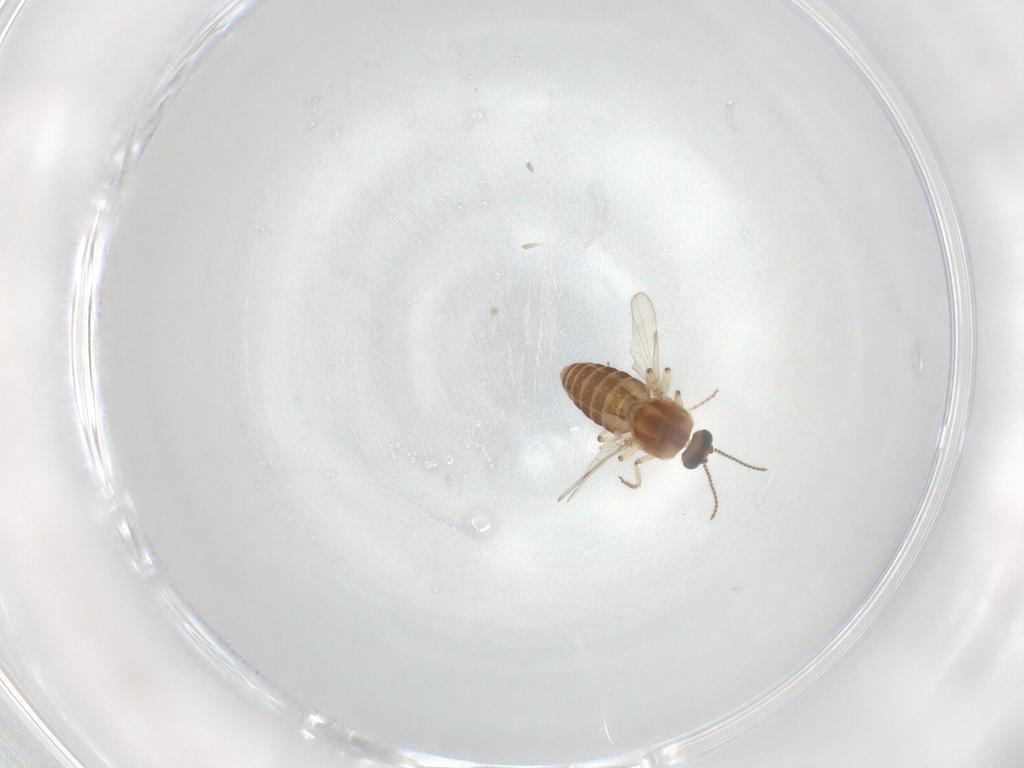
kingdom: Animalia
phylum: Arthropoda
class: Insecta
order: Diptera
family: Ceratopogonidae
